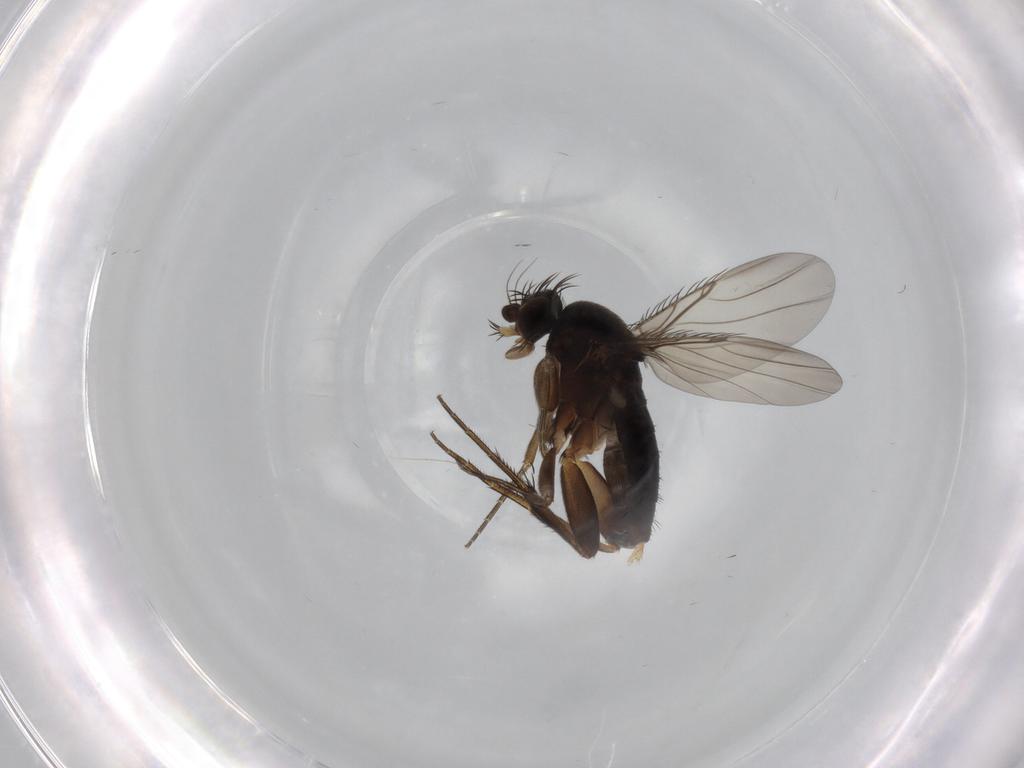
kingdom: Animalia
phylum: Arthropoda
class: Insecta
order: Diptera
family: Phoridae
